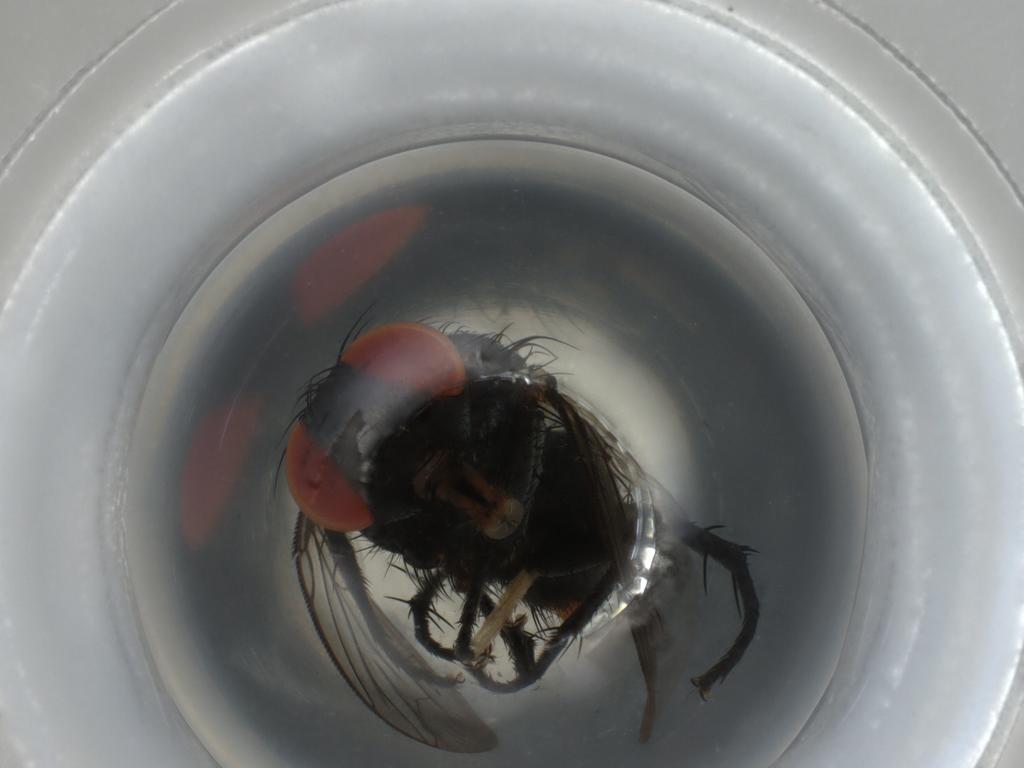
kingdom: Animalia
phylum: Arthropoda
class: Insecta
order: Diptera
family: Sarcophagidae
